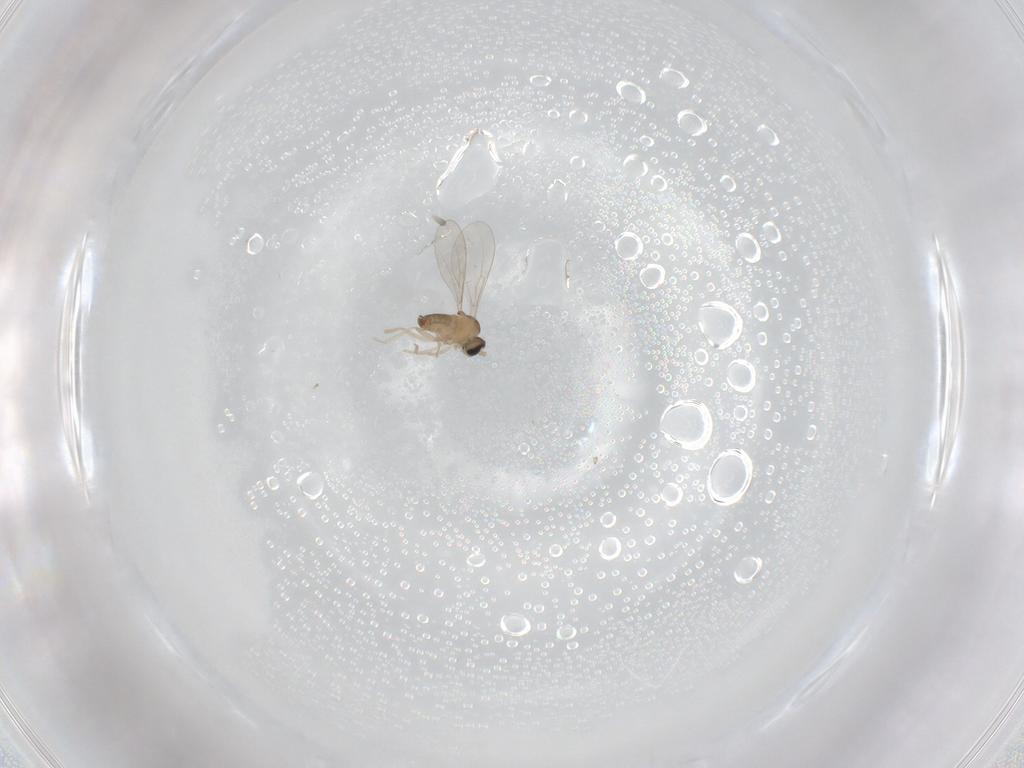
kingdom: Animalia
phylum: Arthropoda
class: Insecta
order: Diptera
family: Cecidomyiidae
